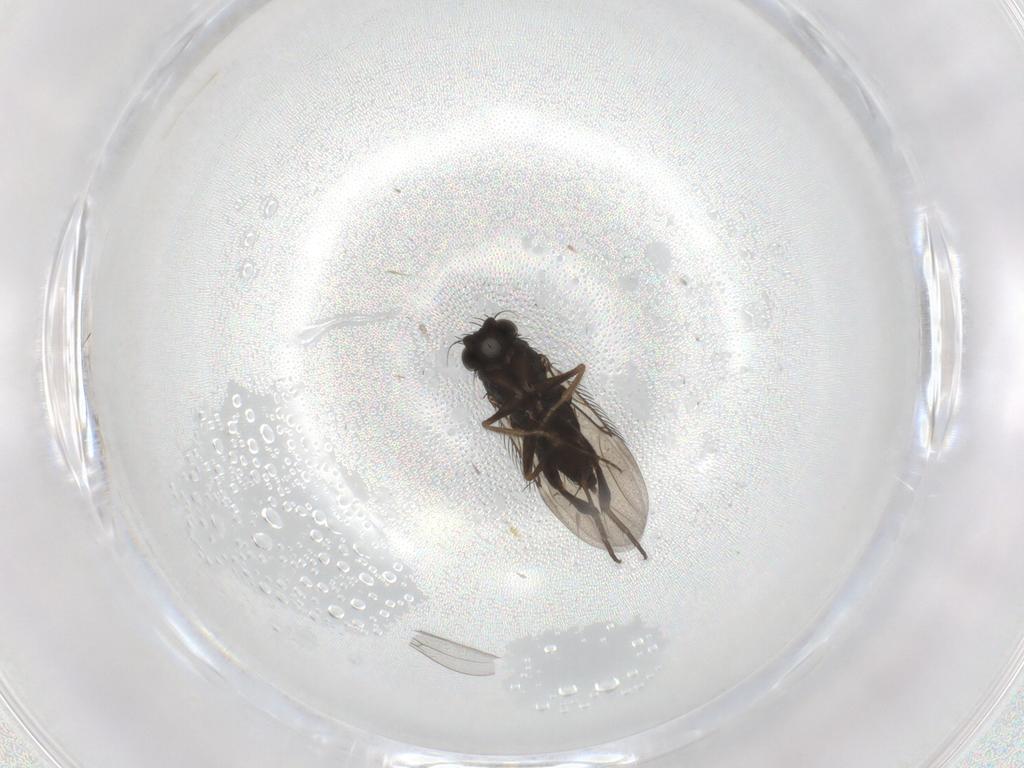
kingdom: Animalia
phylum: Arthropoda
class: Insecta
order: Diptera
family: Phoridae
